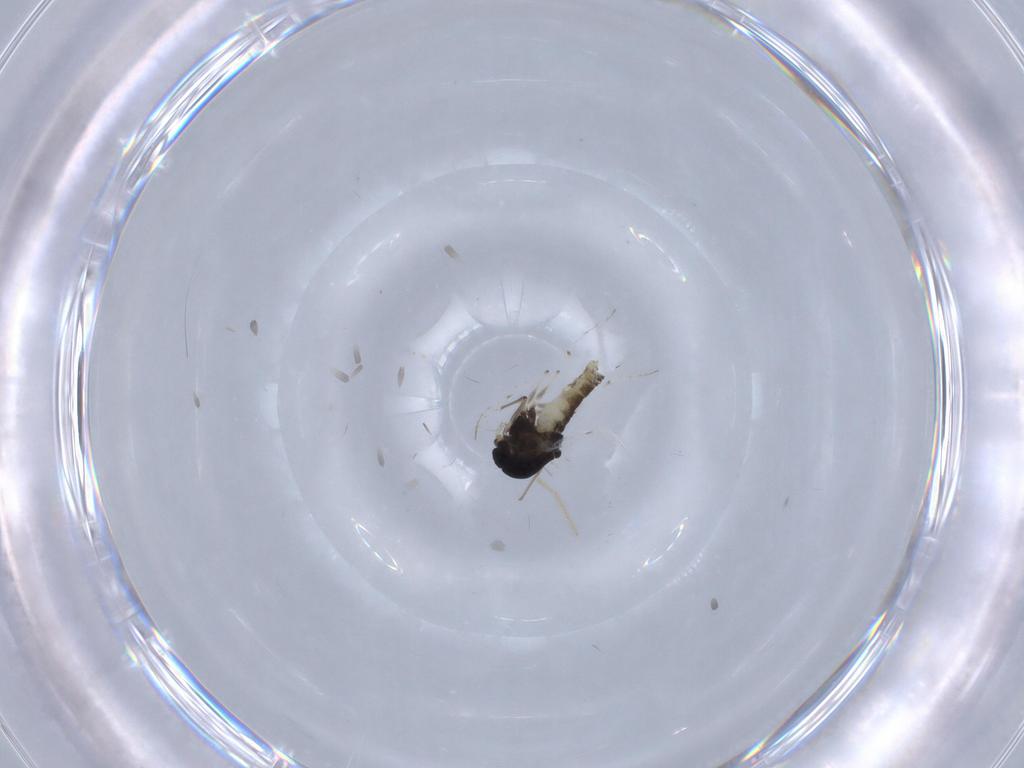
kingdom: Animalia
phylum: Arthropoda
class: Insecta
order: Diptera
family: Chironomidae
